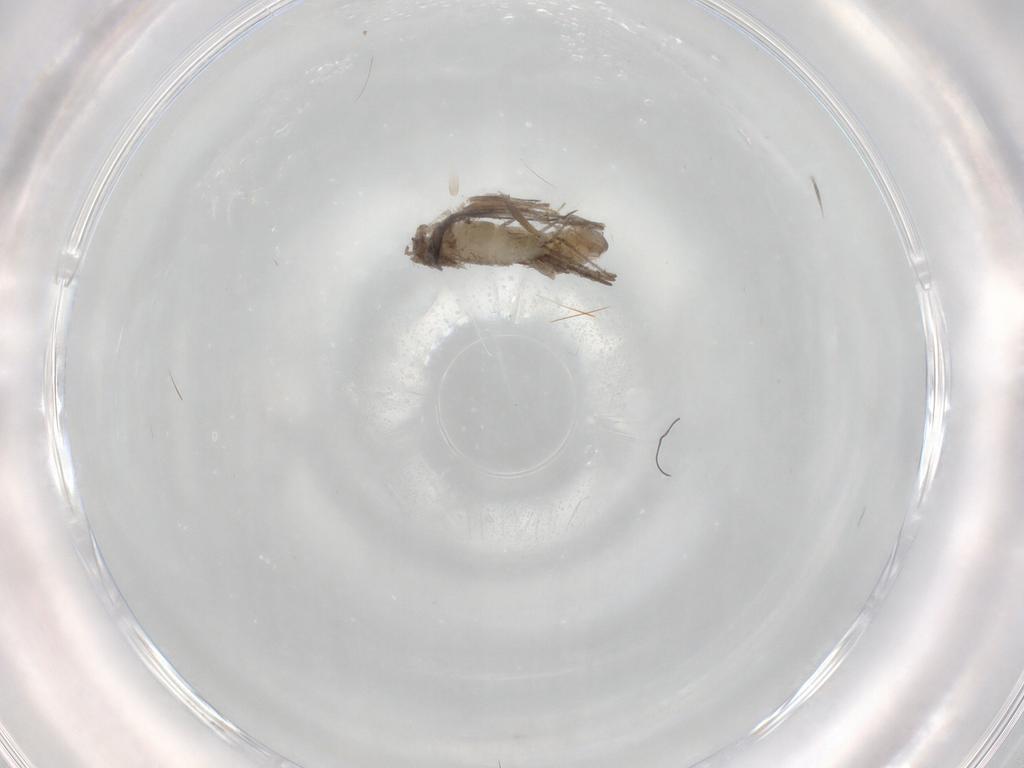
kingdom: Animalia
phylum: Arthropoda
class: Insecta
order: Diptera
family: Cecidomyiidae
